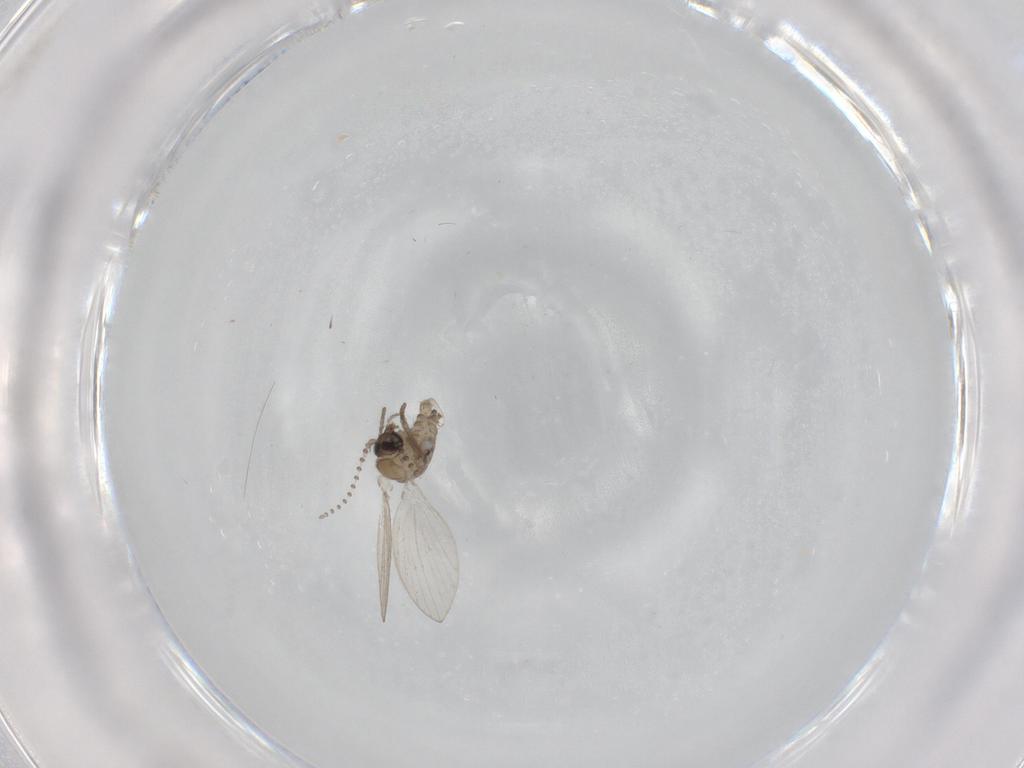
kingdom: Animalia
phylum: Arthropoda
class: Insecta
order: Diptera
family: Psychodidae
